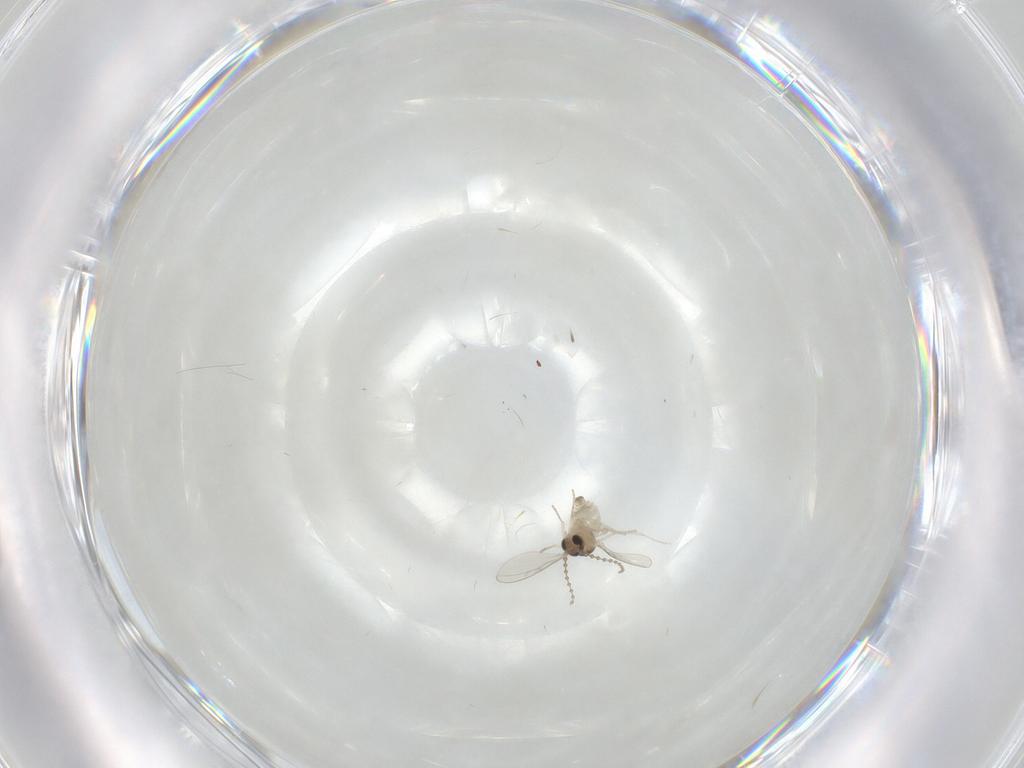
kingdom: Animalia
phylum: Arthropoda
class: Insecta
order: Diptera
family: Cecidomyiidae
